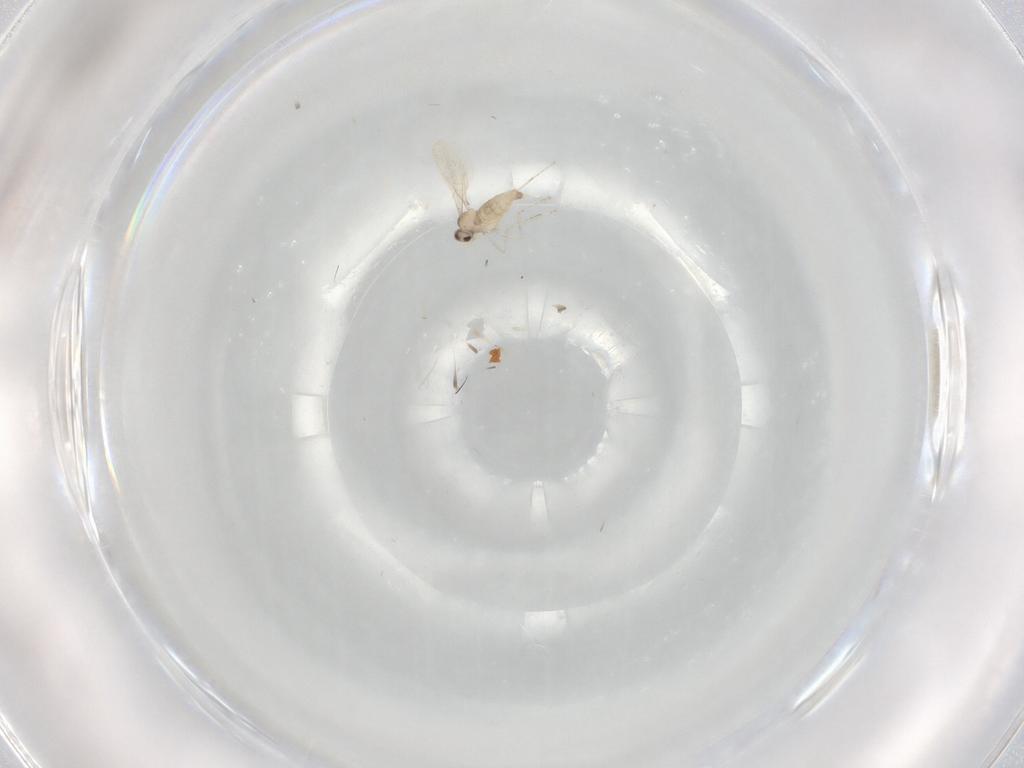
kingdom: Animalia
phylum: Arthropoda
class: Insecta
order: Diptera
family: Cecidomyiidae
